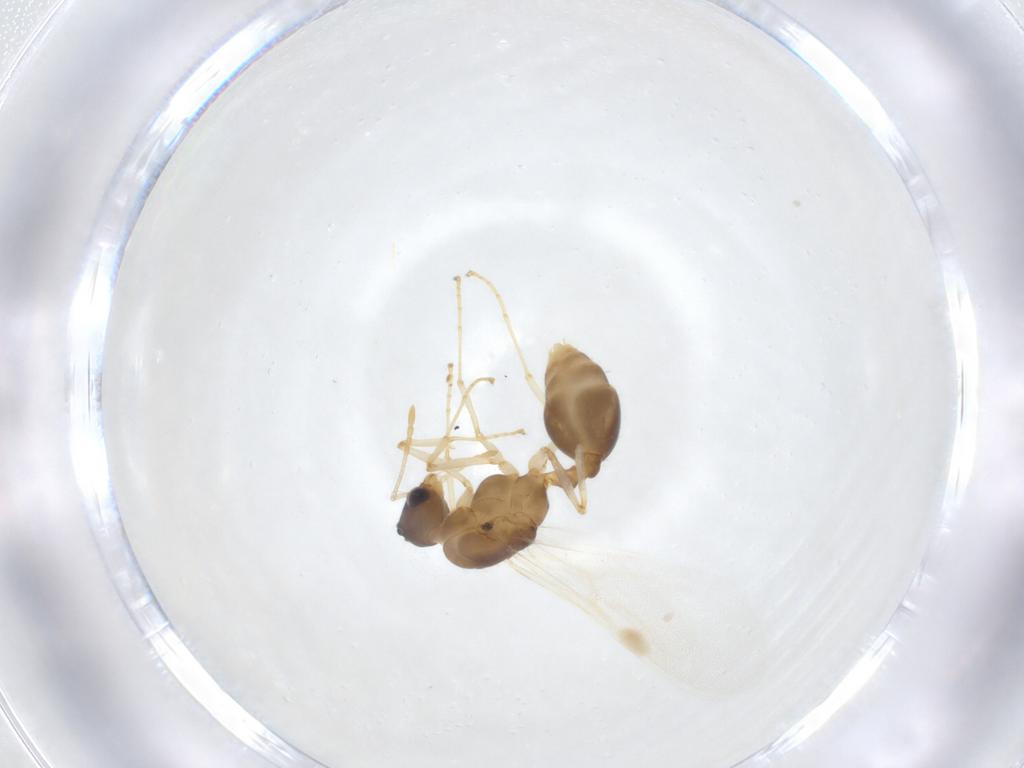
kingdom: Animalia
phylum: Arthropoda
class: Insecta
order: Hymenoptera
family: Formicidae
